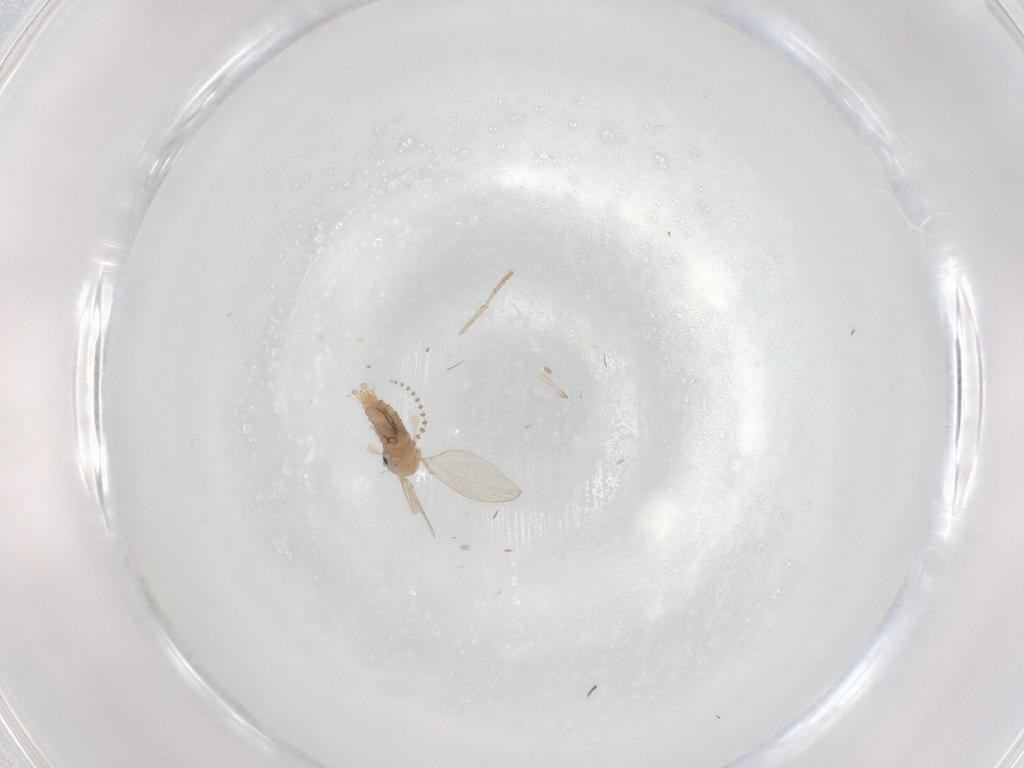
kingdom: Animalia
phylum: Arthropoda
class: Insecta
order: Diptera
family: Psychodidae
